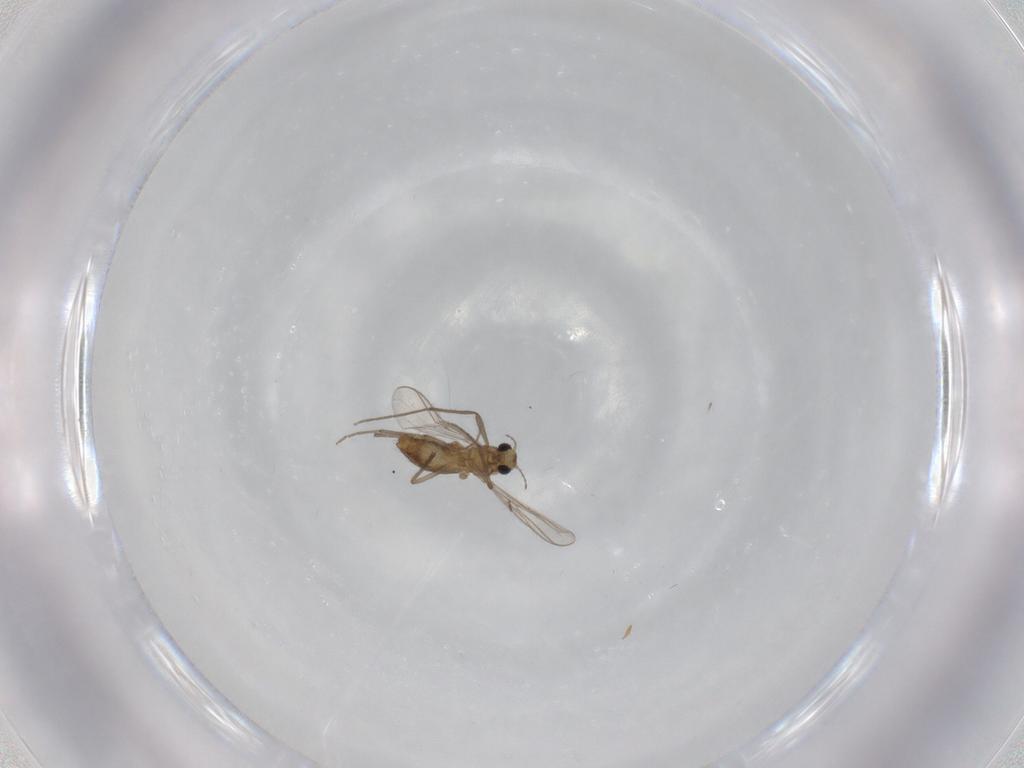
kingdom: Animalia
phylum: Arthropoda
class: Insecta
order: Diptera
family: Chironomidae
